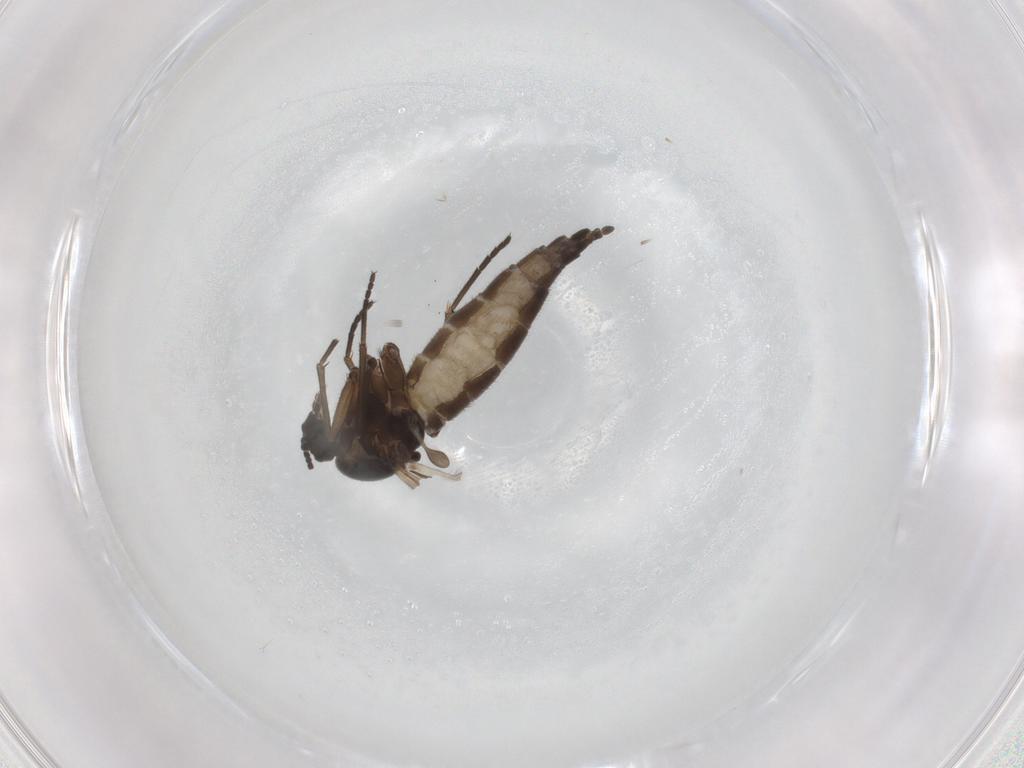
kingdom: Animalia
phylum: Arthropoda
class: Insecta
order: Diptera
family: Sciaridae
